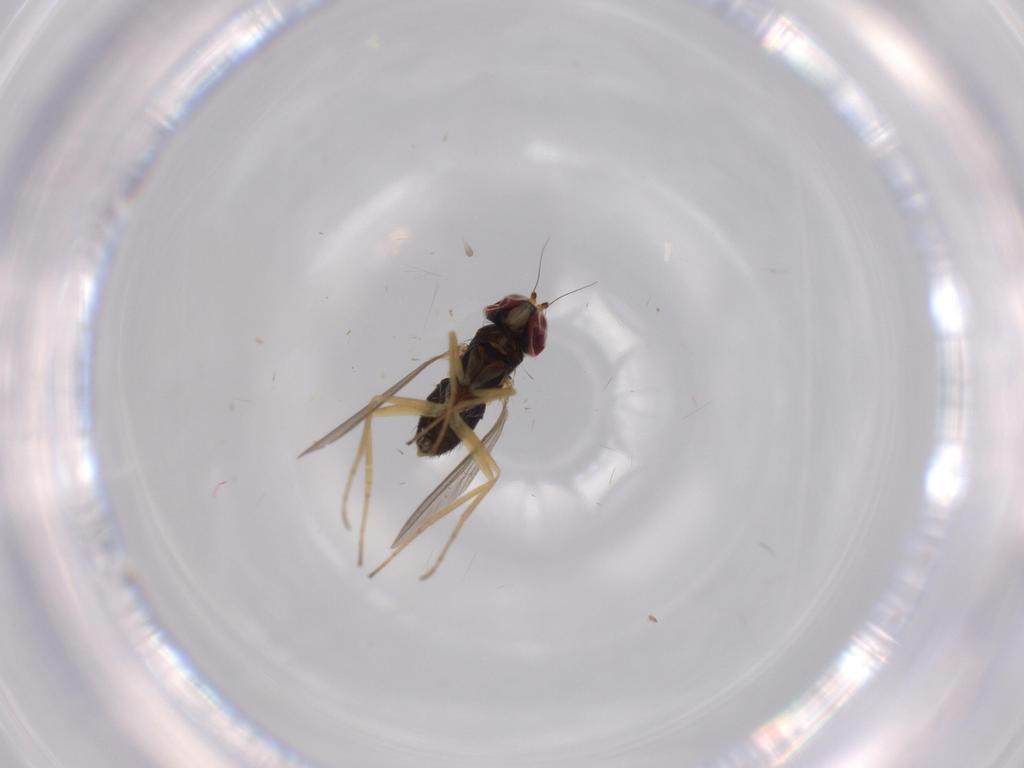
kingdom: Animalia
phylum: Arthropoda
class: Insecta
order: Diptera
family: Dolichopodidae
